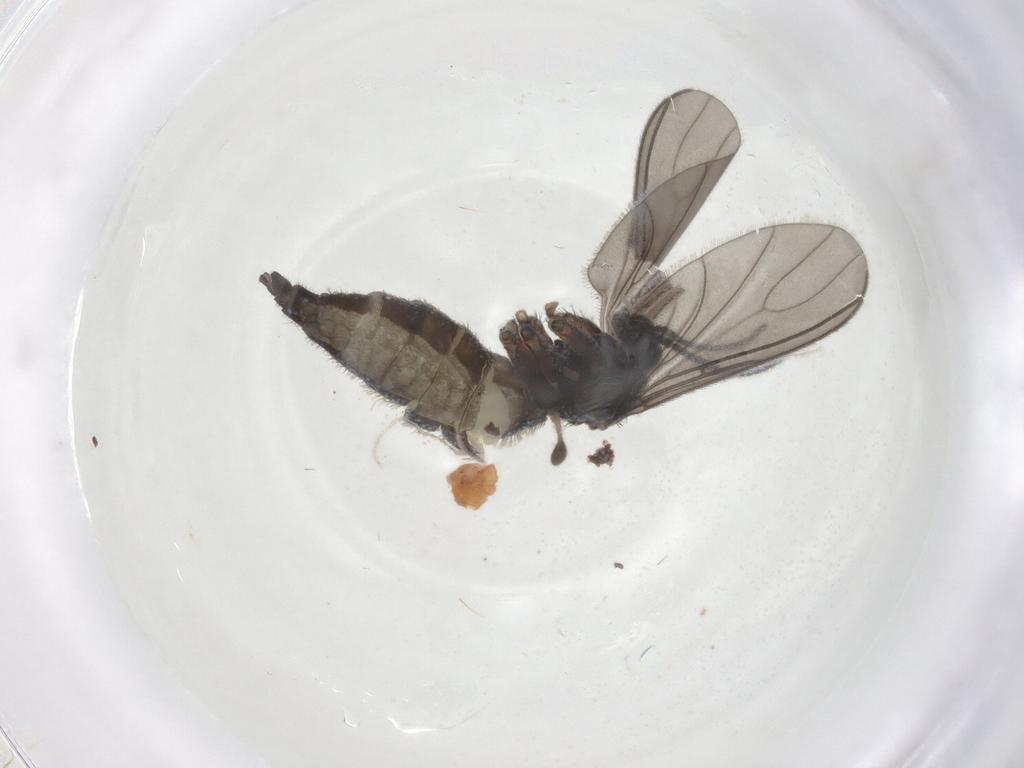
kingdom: Animalia
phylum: Arthropoda
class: Insecta
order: Diptera
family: Sciaridae
